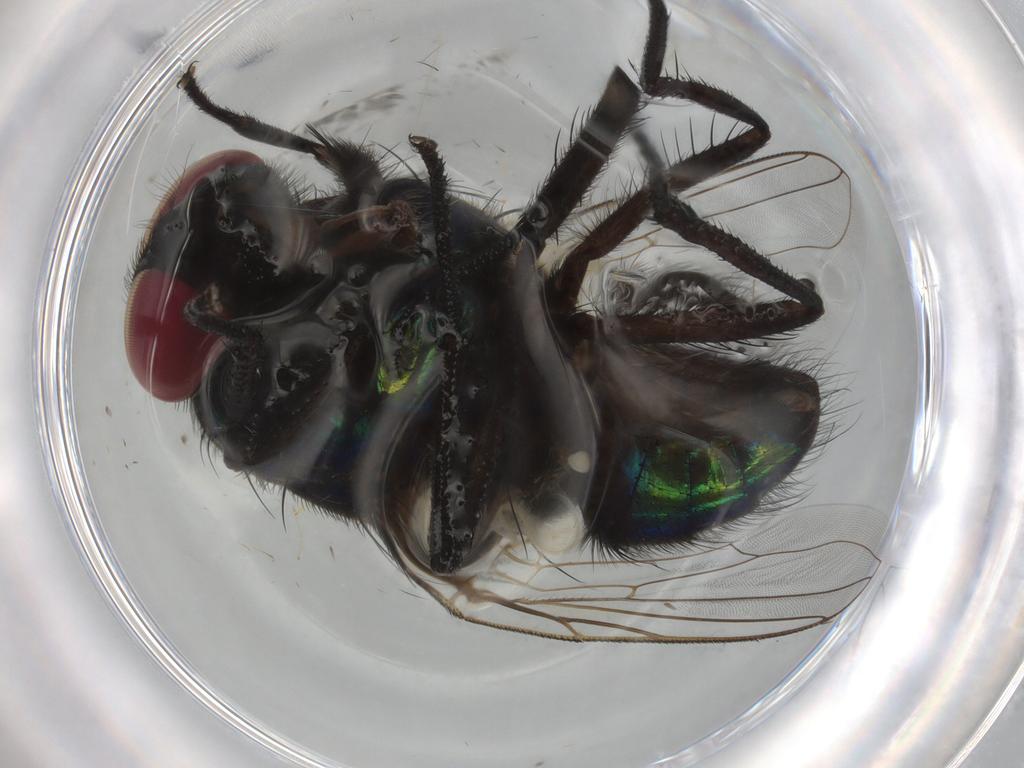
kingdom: Animalia
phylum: Arthropoda
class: Insecta
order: Diptera
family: Muscidae
